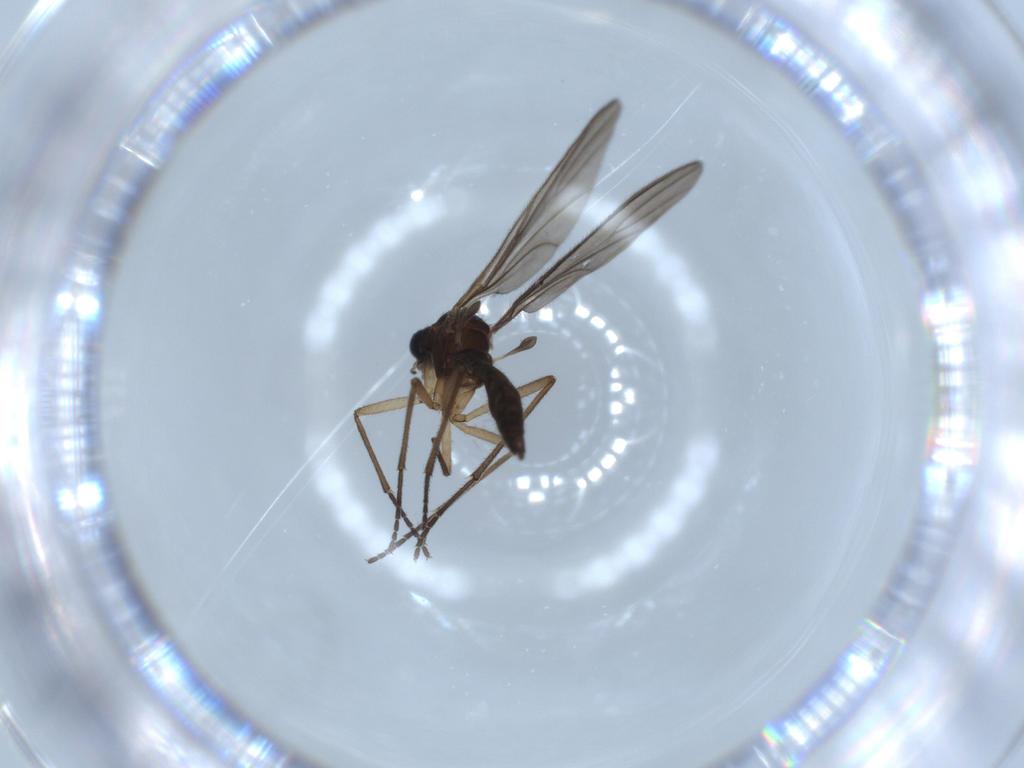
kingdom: Animalia
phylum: Arthropoda
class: Insecta
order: Diptera
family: Sciaridae
